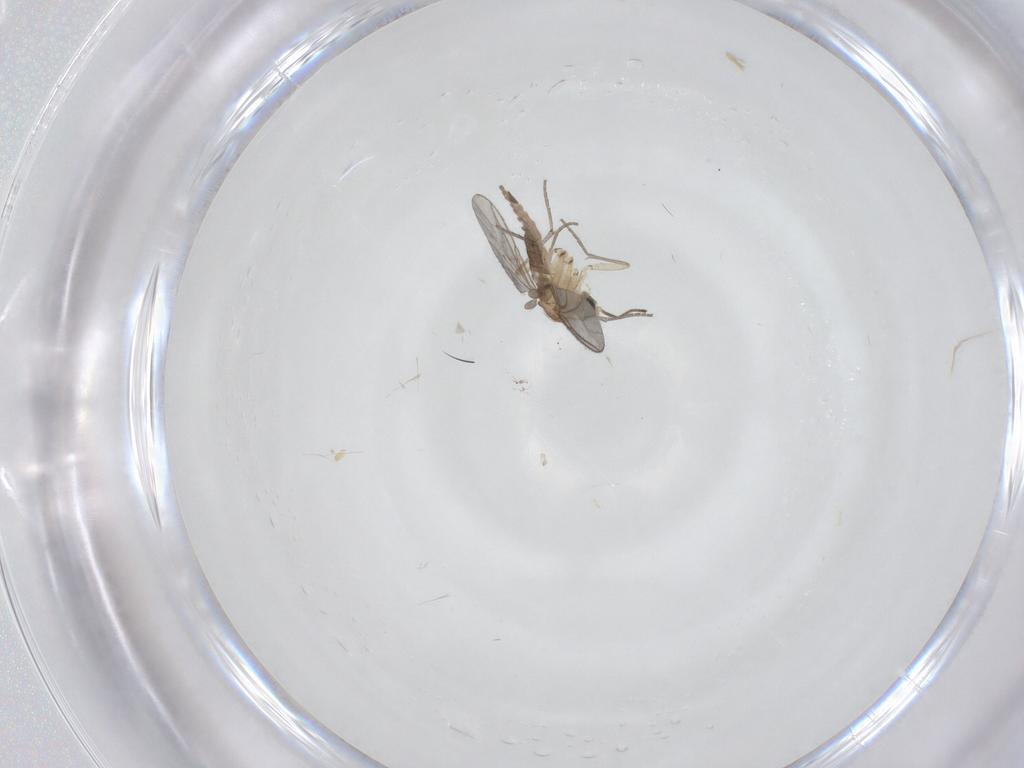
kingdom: Animalia
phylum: Arthropoda
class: Insecta
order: Diptera
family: Sciaridae
